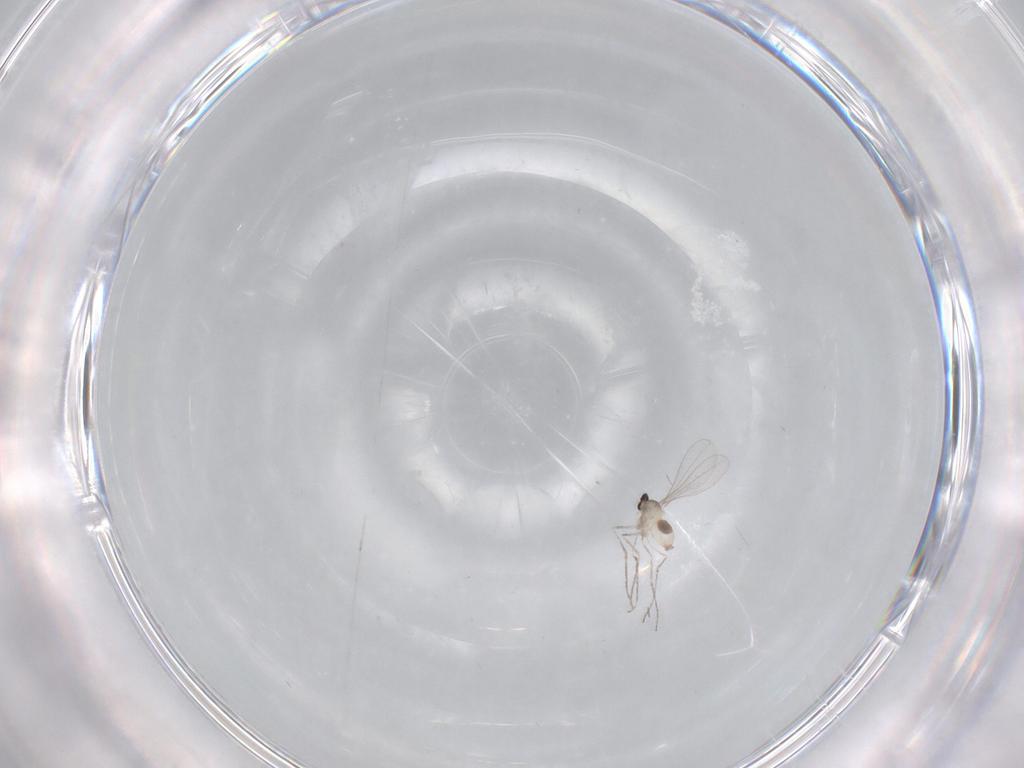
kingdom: Animalia
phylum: Arthropoda
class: Insecta
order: Diptera
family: Cecidomyiidae
